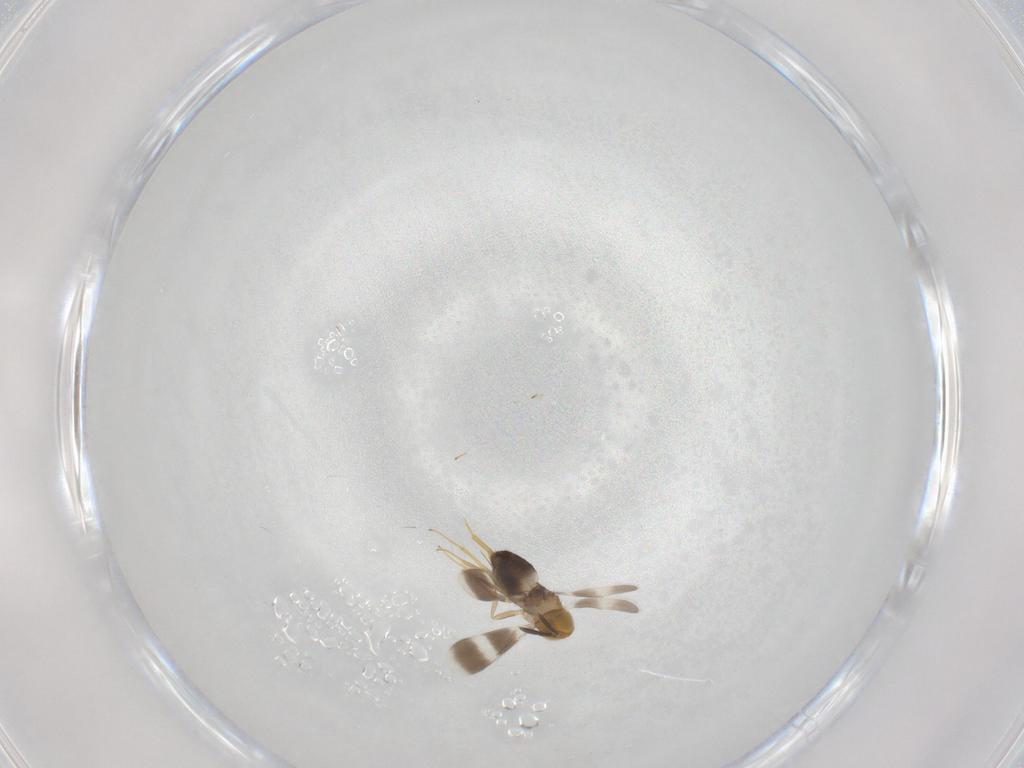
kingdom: Animalia
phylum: Arthropoda
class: Insecta
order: Hymenoptera
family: Aphelinidae
